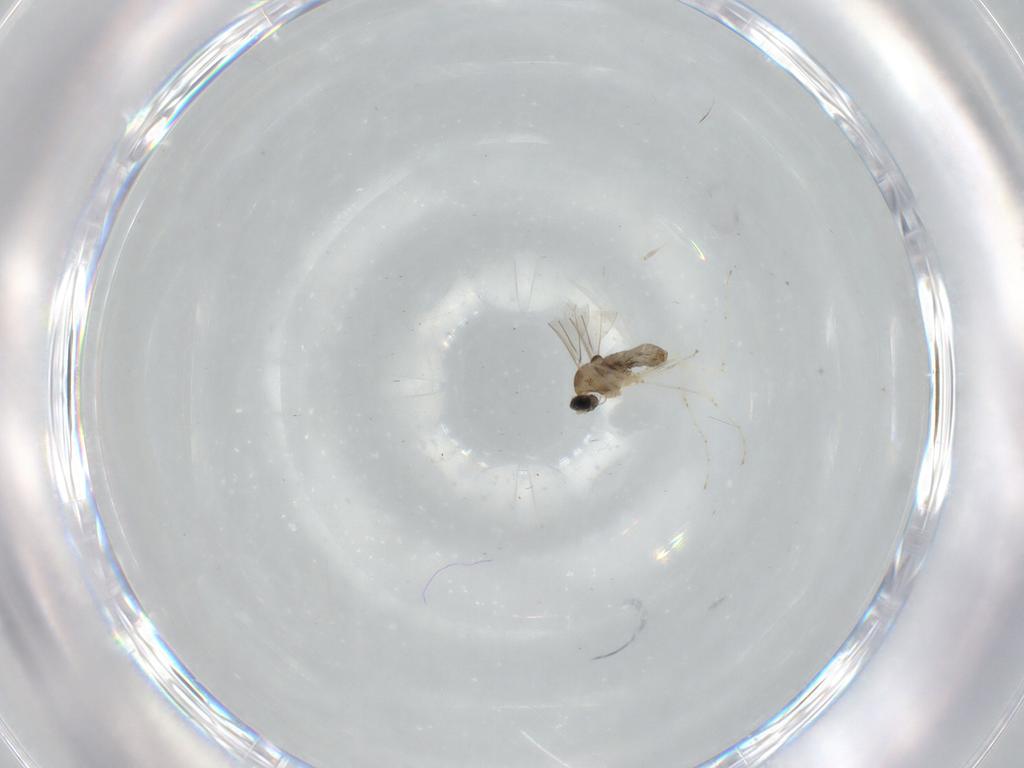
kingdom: Animalia
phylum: Arthropoda
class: Insecta
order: Diptera
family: Cecidomyiidae
